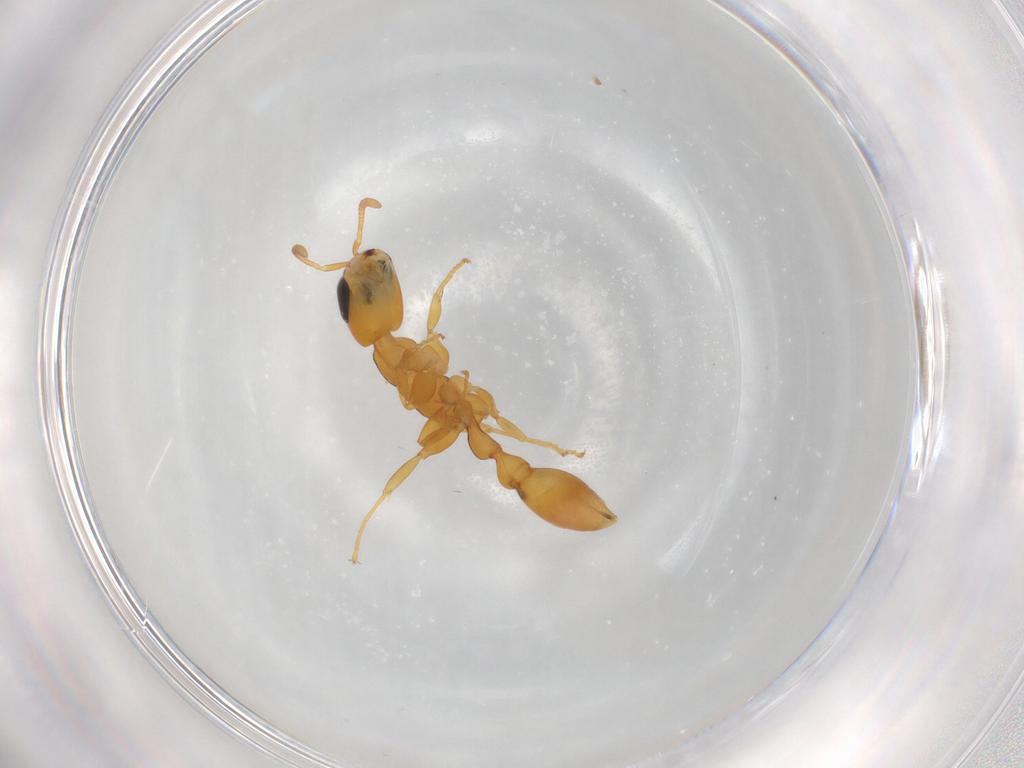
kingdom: Animalia
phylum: Arthropoda
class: Insecta
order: Hymenoptera
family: Formicidae
